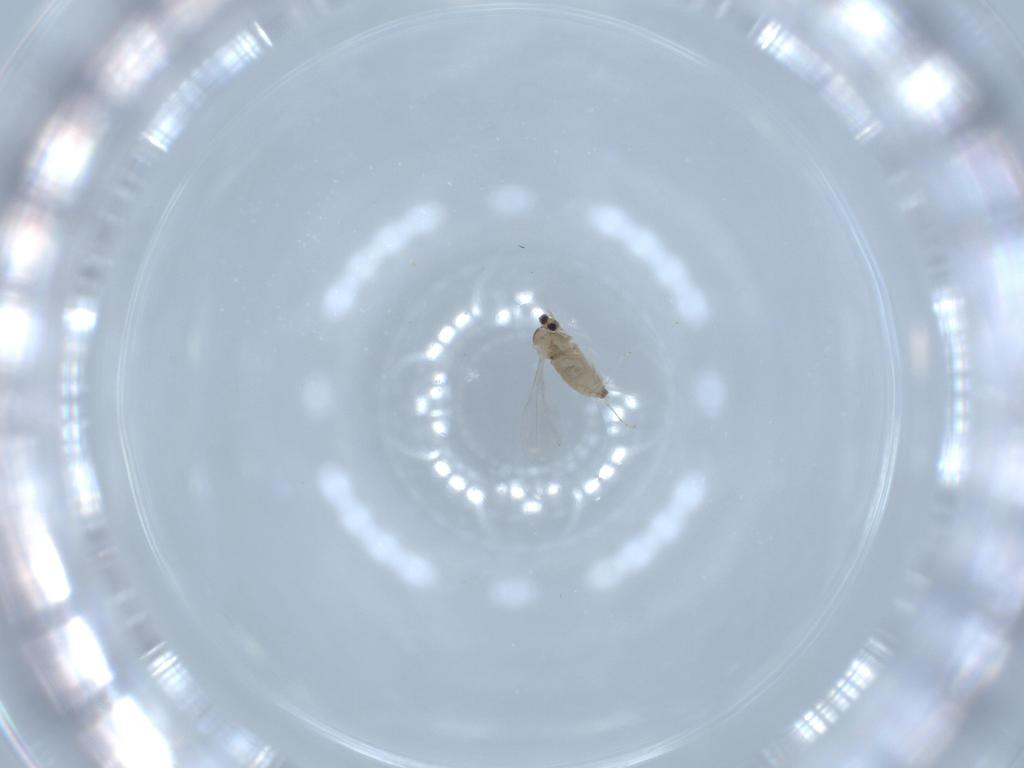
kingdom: Animalia
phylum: Arthropoda
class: Insecta
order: Diptera
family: Cecidomyiidae
